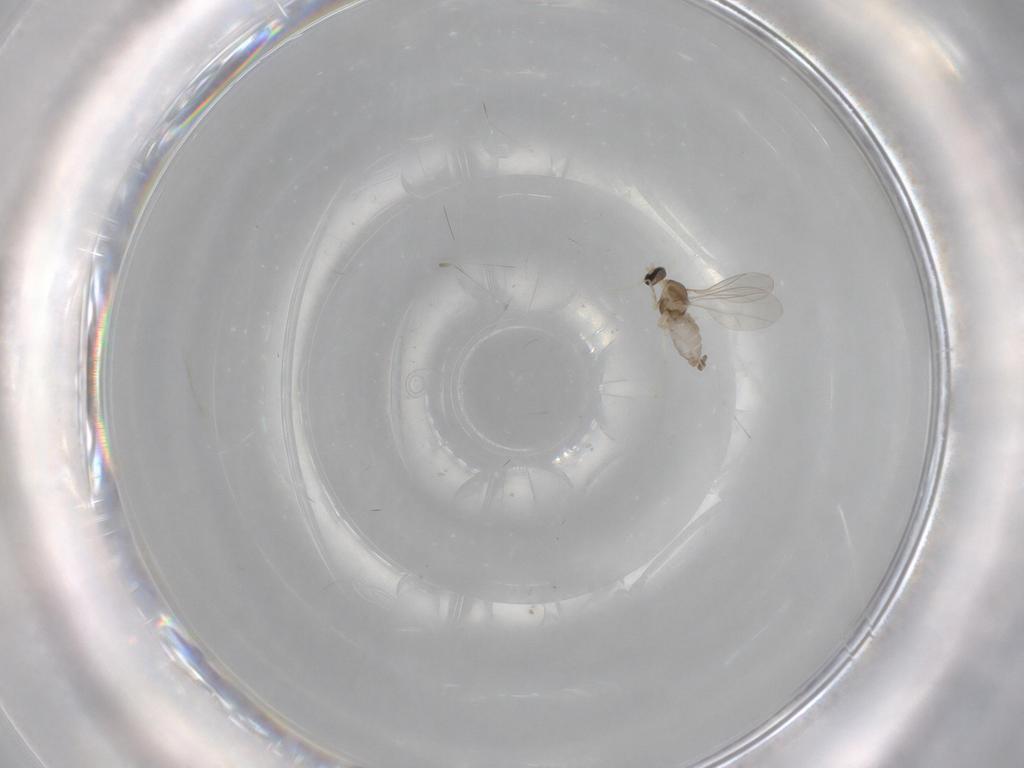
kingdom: Animalia
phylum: Arthropoda
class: Insecta
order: Diptera
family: Cecidomyiidae
